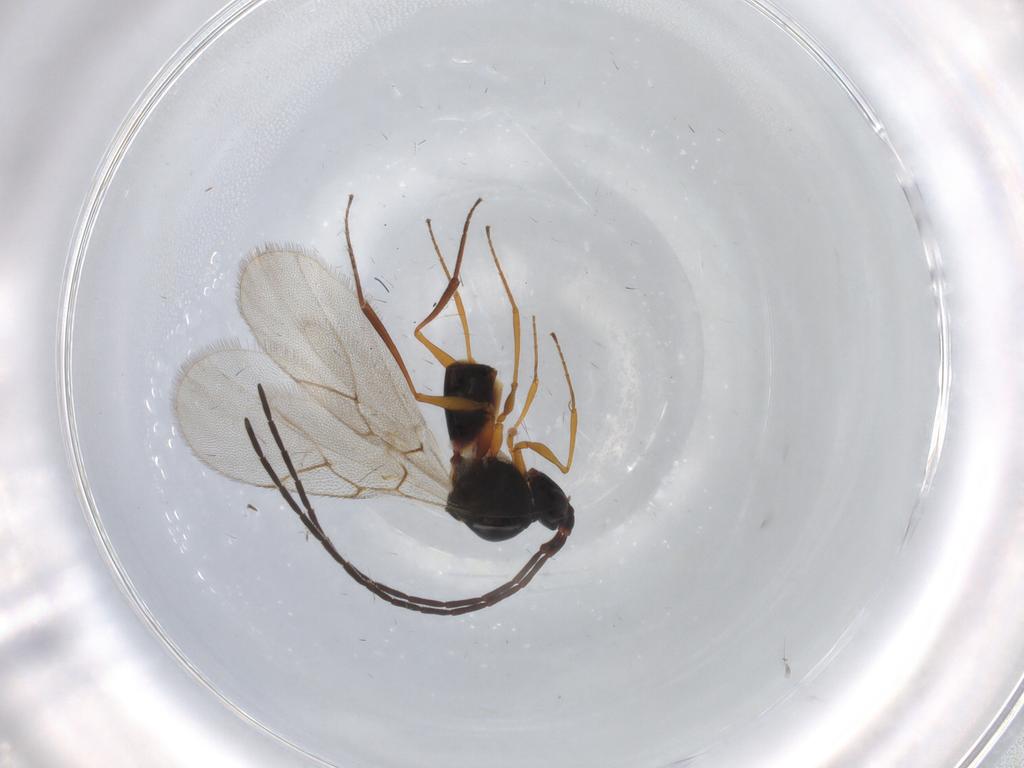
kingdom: Animalia
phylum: Arthropoda
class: Insecta
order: Hymenoptera
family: Figitidae
